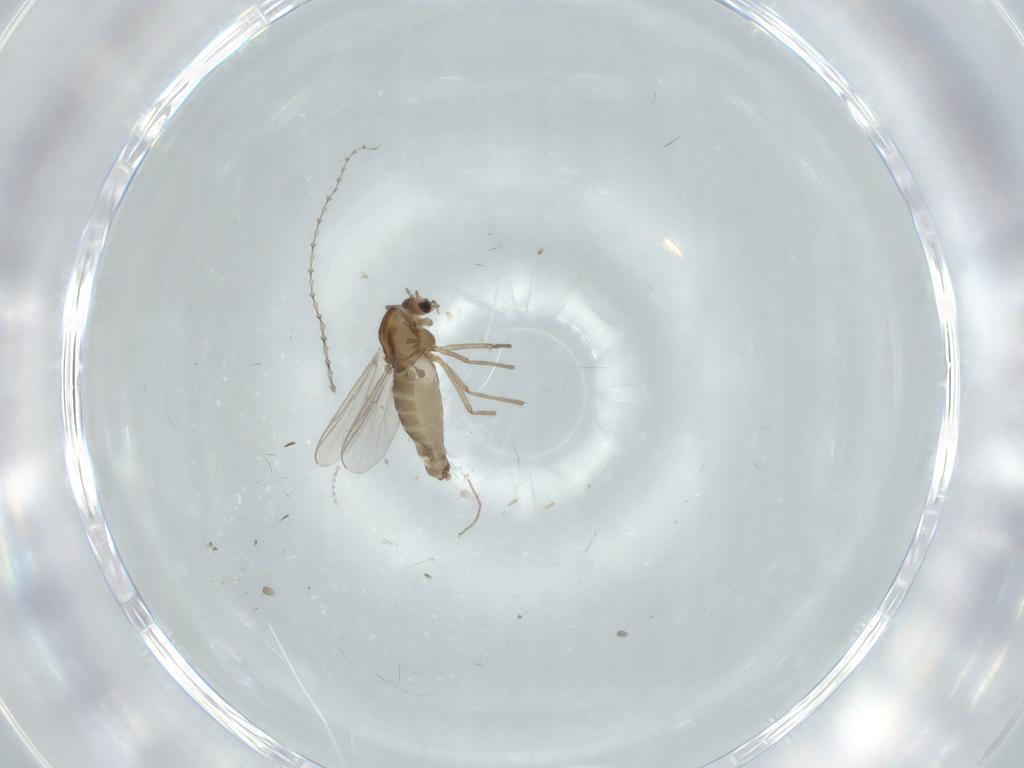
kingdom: Animalia
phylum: Arthropoda
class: Insecta
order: Diptera
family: Chironomidae
